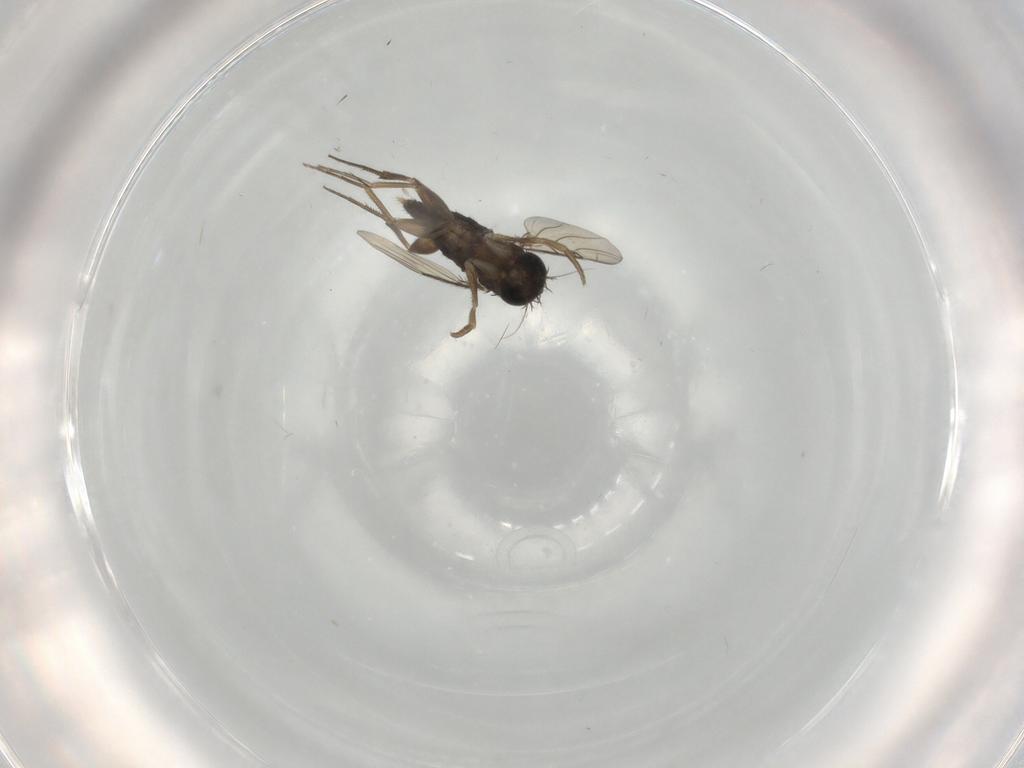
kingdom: Animalia
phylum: Arthropoda
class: Insecta
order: Diptera
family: Phoridae
